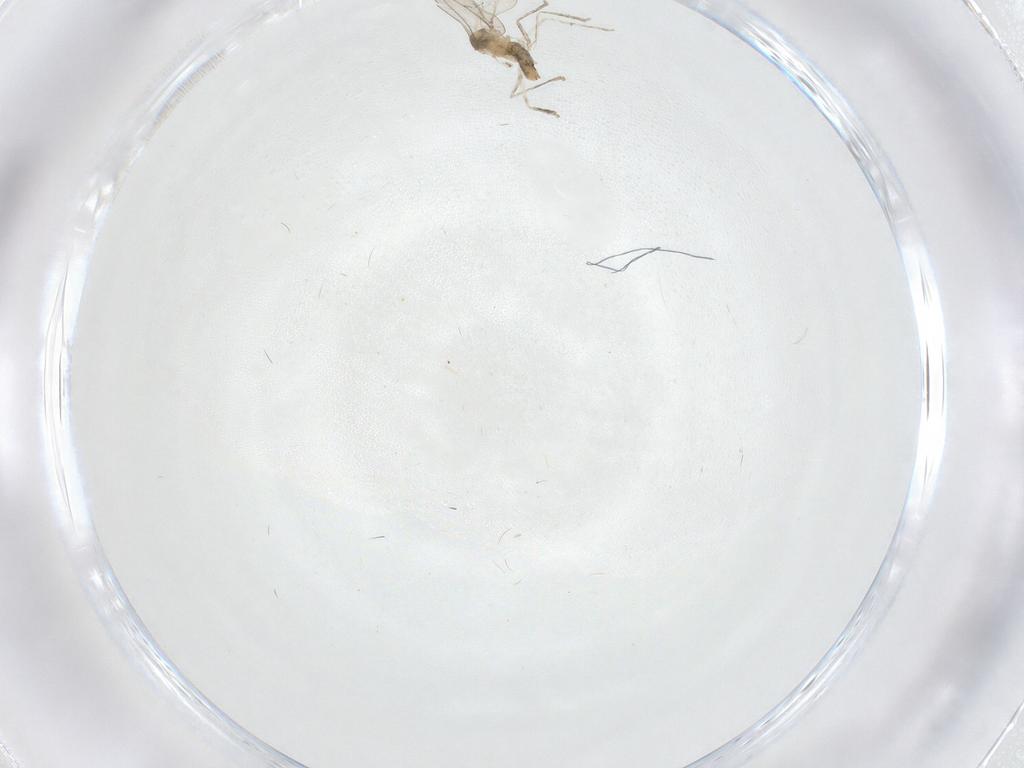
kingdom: Animalia
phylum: Arthropoda
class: Insecta
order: Diptera
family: Cecidomyiidae
